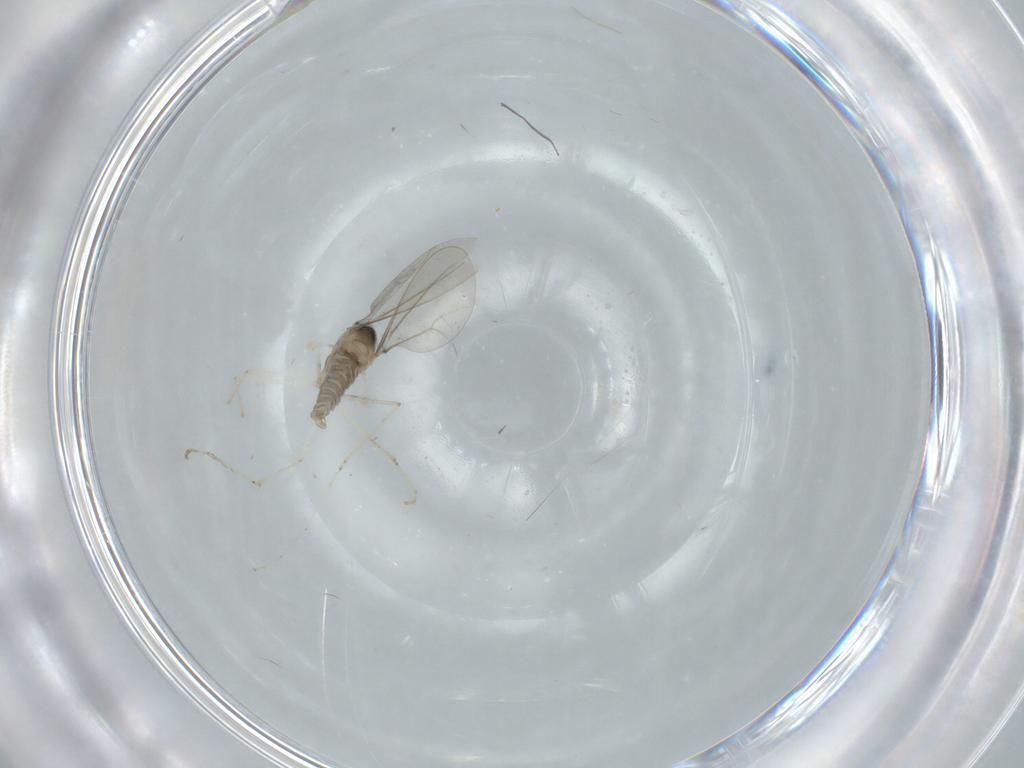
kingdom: Animalia
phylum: Arthropoda
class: Insecta
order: Diptera
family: Cecidomyiidae
